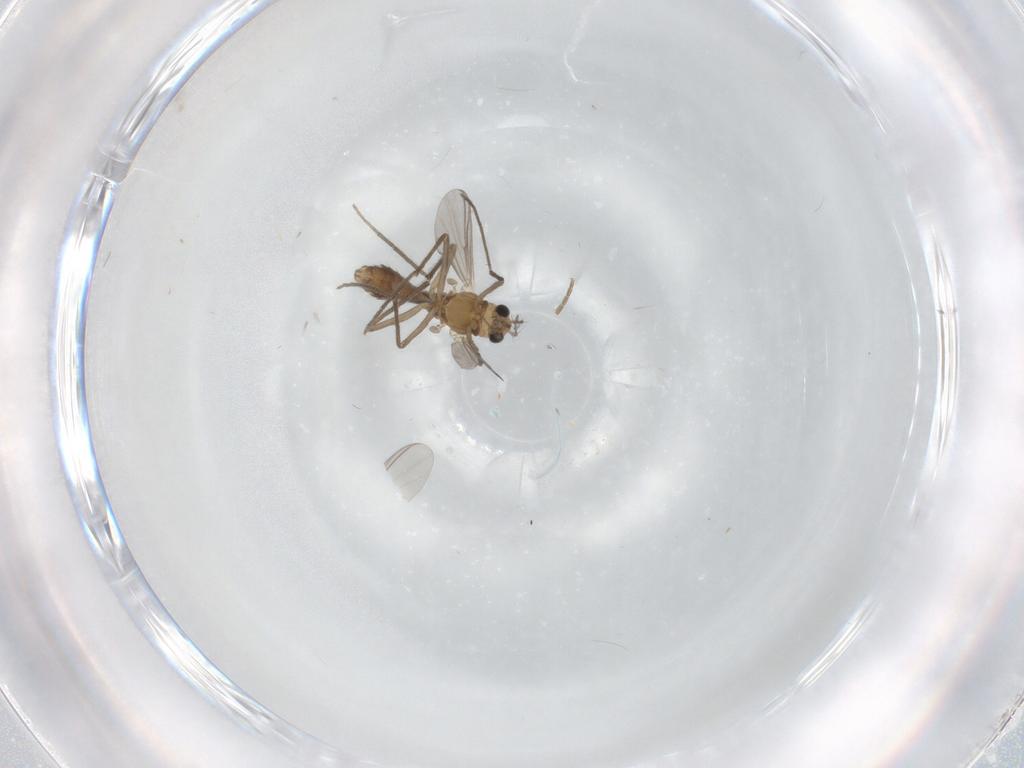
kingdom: Animalia
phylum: Arthropoda
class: Insecta
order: Diptera
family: Chironomidae
